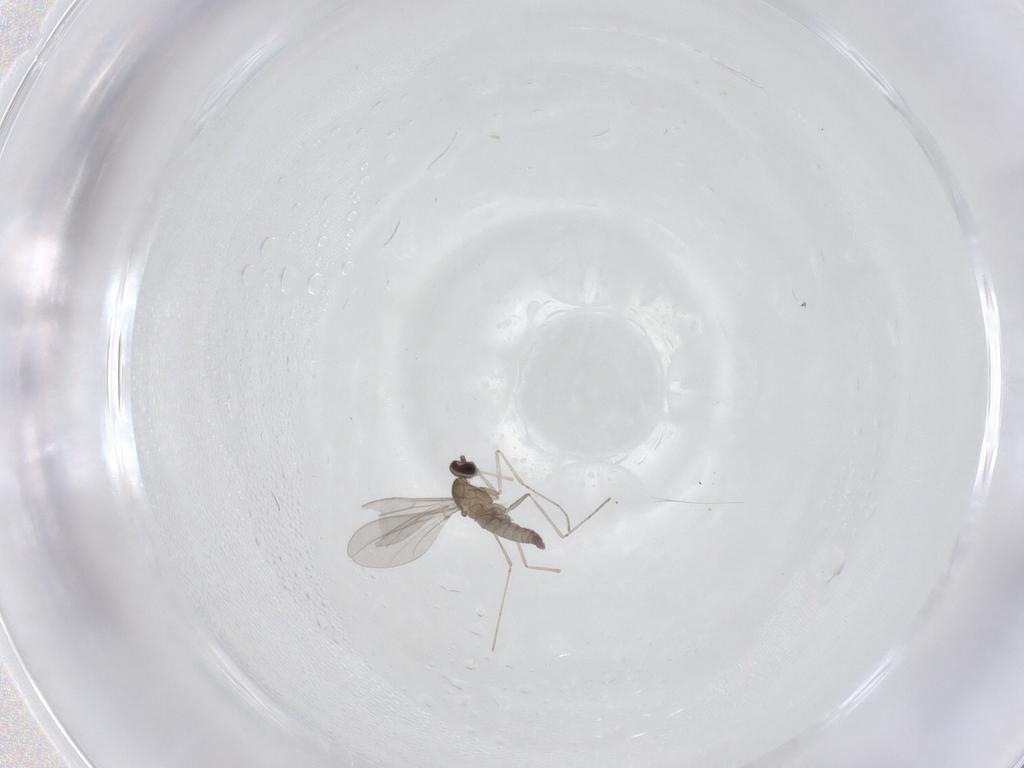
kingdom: Animalia
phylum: Arthropoda
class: Insecta
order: Diptera
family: Cecidomyiidae
